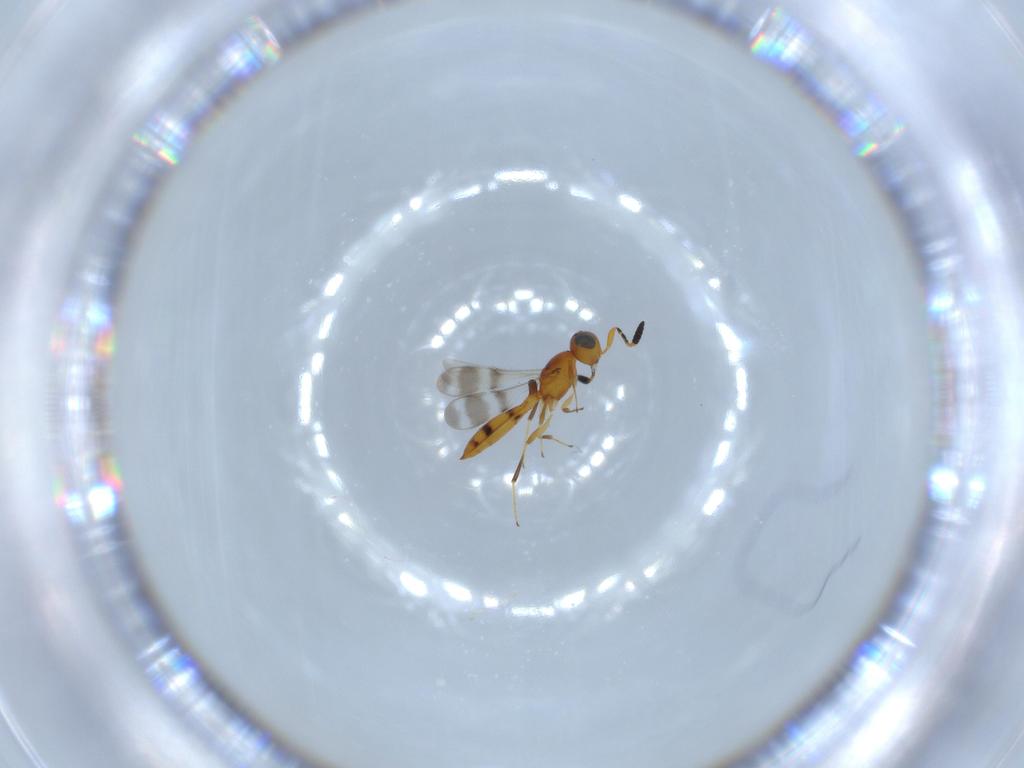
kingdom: Animalia
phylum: Arthropoda
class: Insecta
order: Hymenoptera
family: Scelionidae
